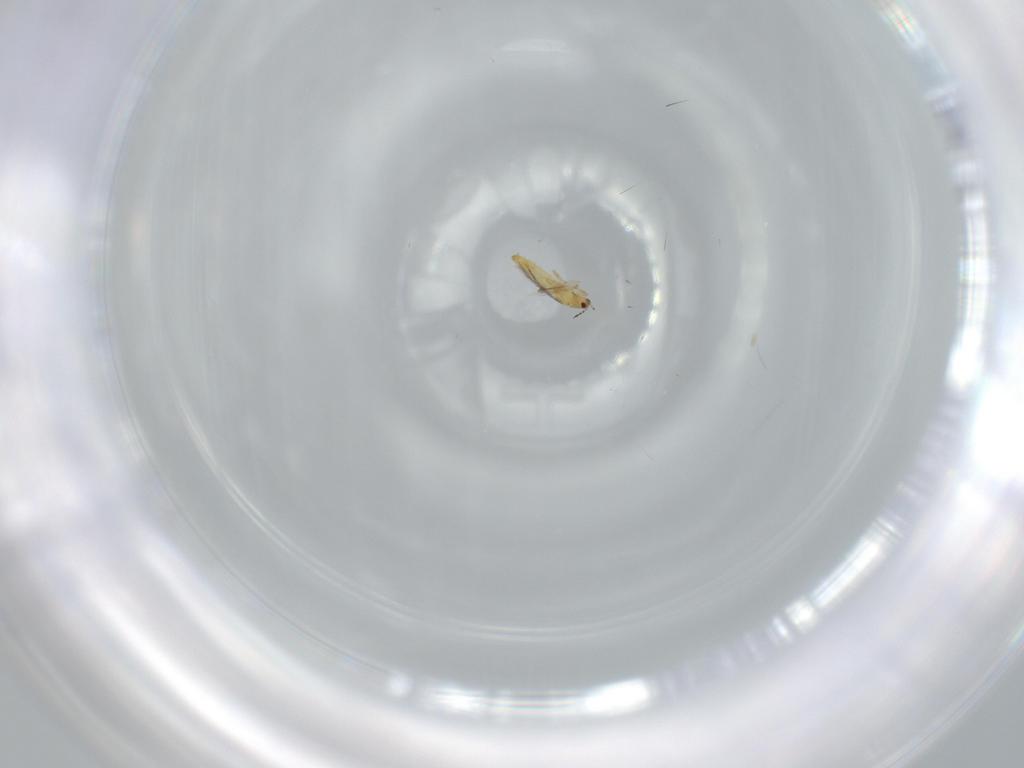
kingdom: Animalia
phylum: Arthropoda
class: Insecta
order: Thysanoptera
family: Thripidae
